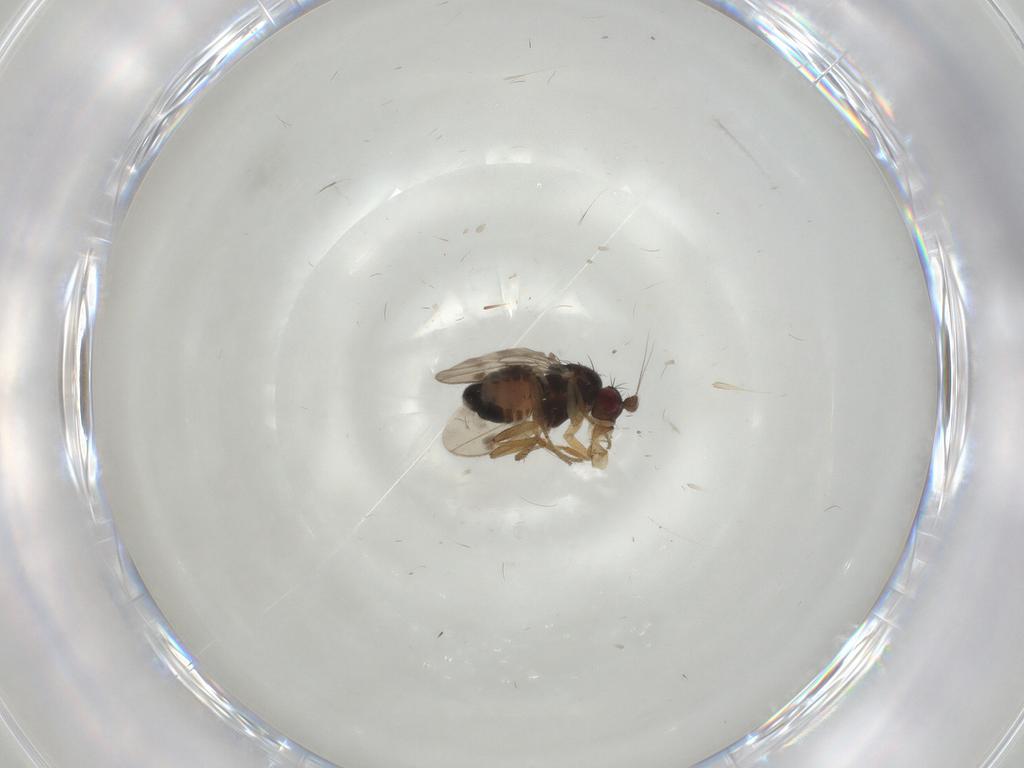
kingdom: Animalia
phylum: Arthropoda
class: Insecta
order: Diptera
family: Sphaeroceridae
